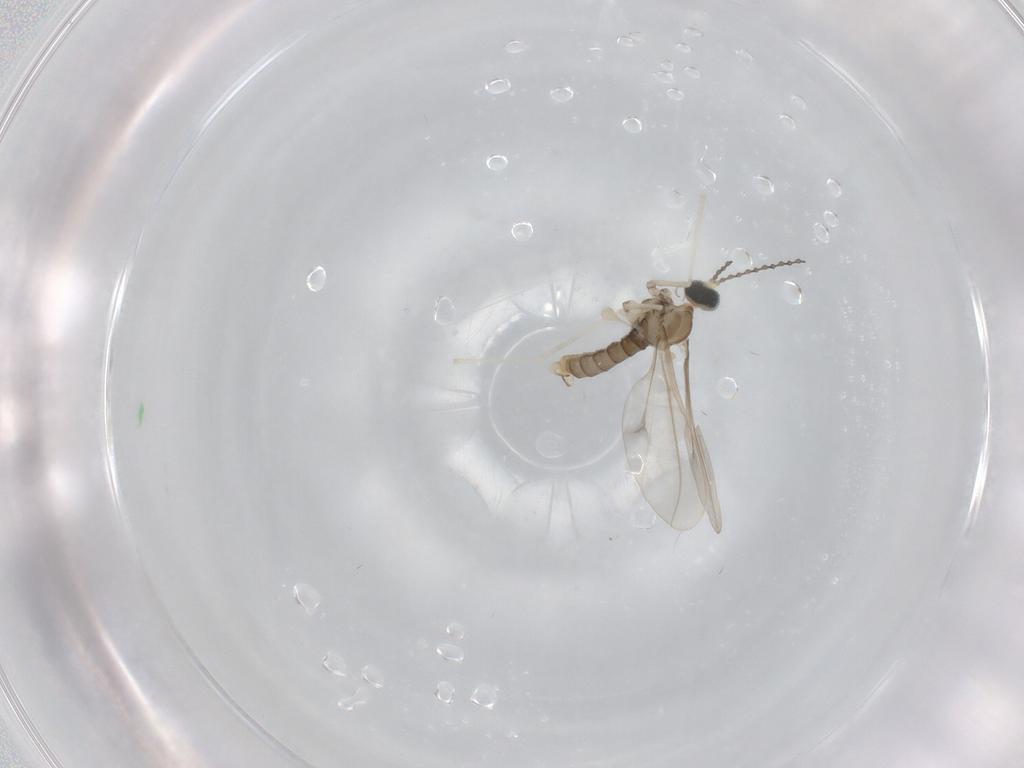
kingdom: Animalia
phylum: Arthropoda
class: Insecta
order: Diptera
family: Cecidomyiidae
